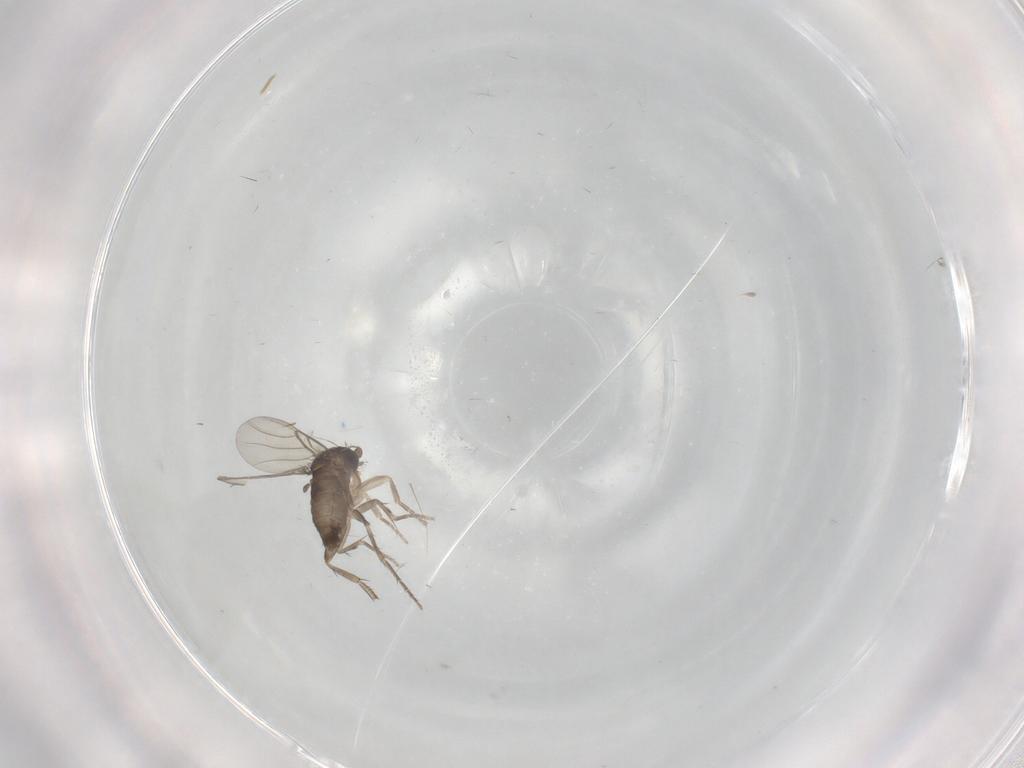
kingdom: Animalia
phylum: Arthropoda
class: Insecta
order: Diptera
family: Phoridae
